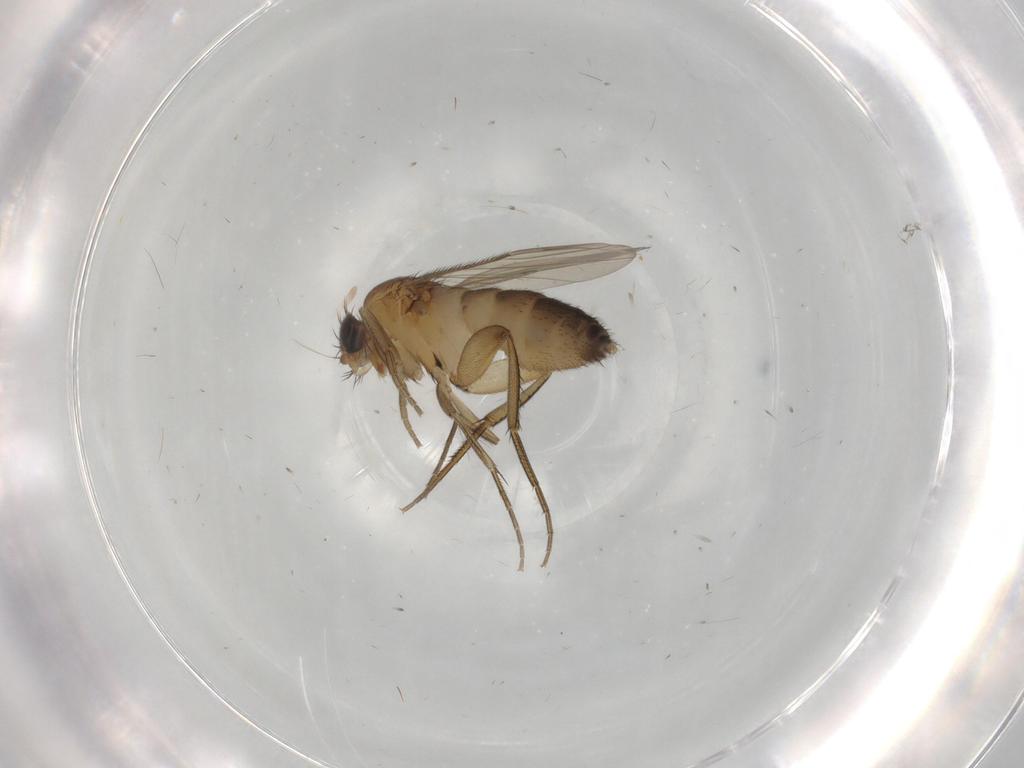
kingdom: Animalia
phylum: Arthropoda
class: Insecta
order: Diptera
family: Phoridae
